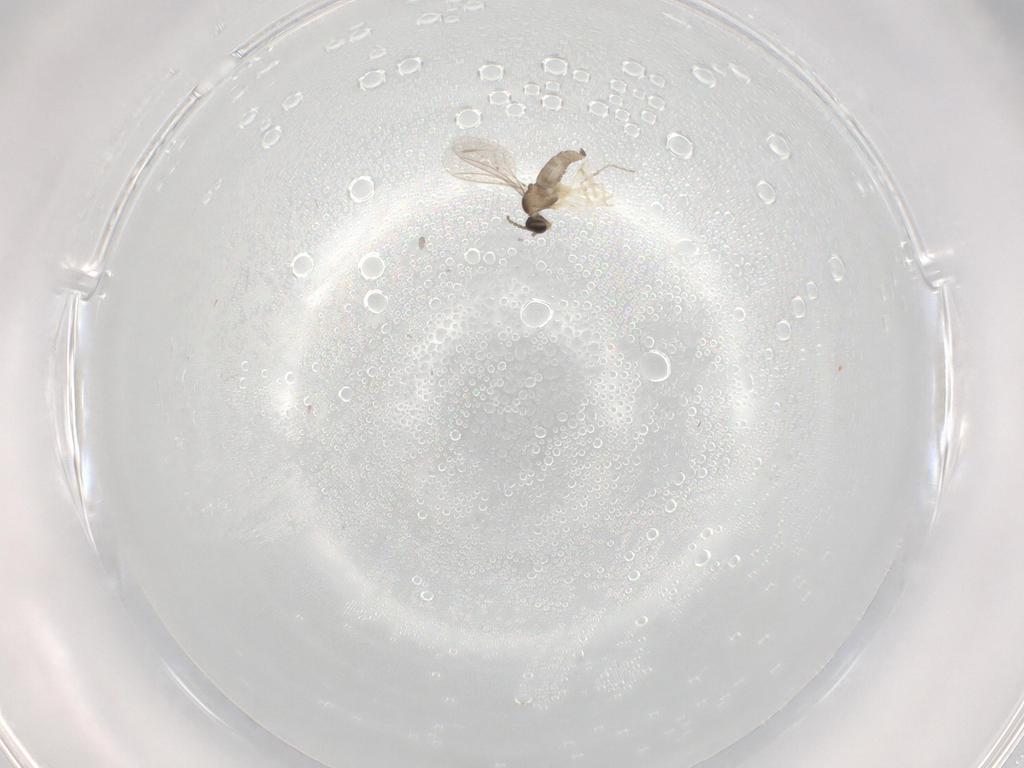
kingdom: Animalia
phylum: Arthropoda
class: Insecta
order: Diptera
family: Cecidomyiidae
